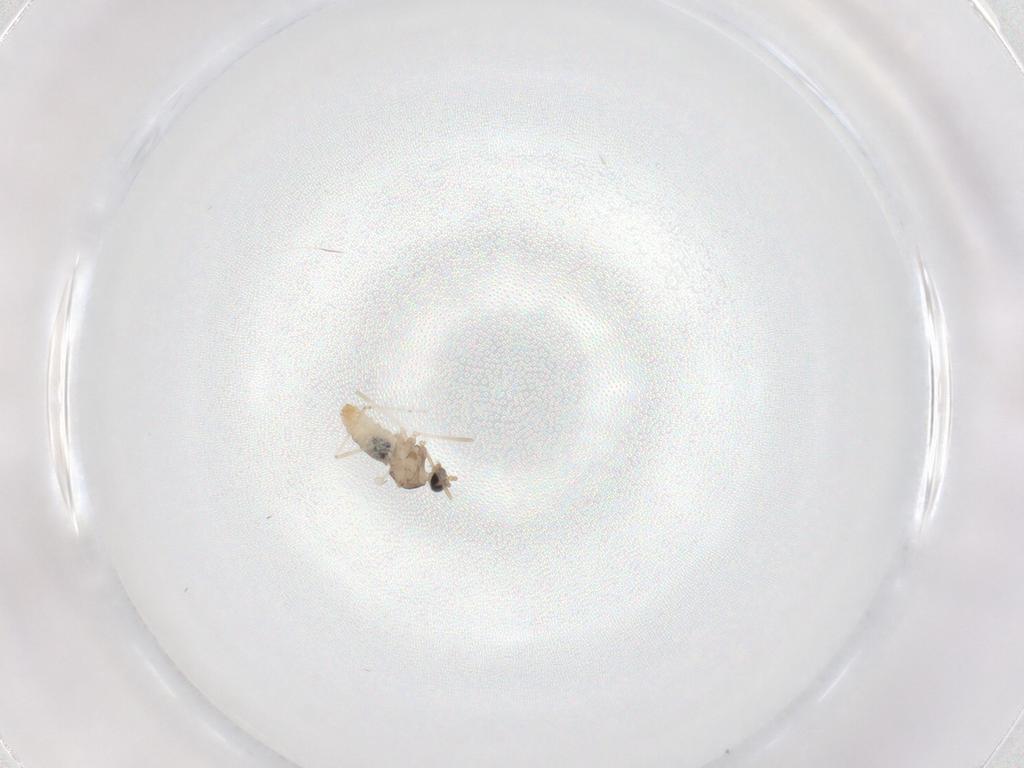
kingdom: Animalia
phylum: Arthropoda
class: Insecta
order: Diptera
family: Cecidomyiidae
